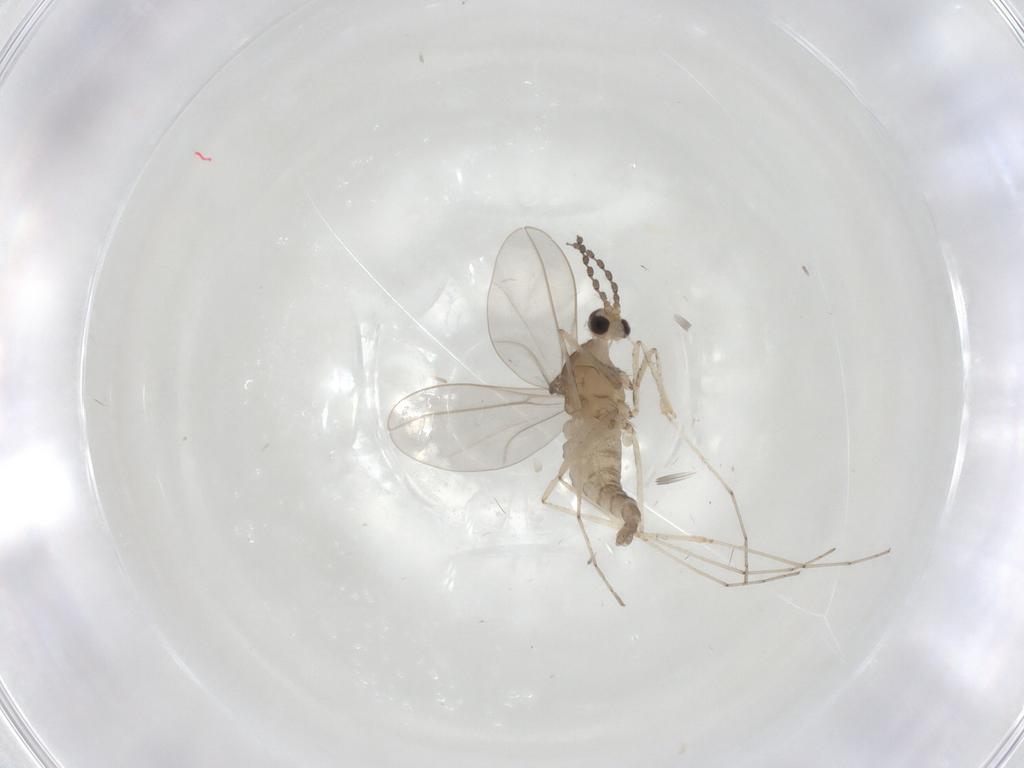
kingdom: Animalia
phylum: Arthropoda
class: Insecta
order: Diptera
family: Cecidomyiidae
